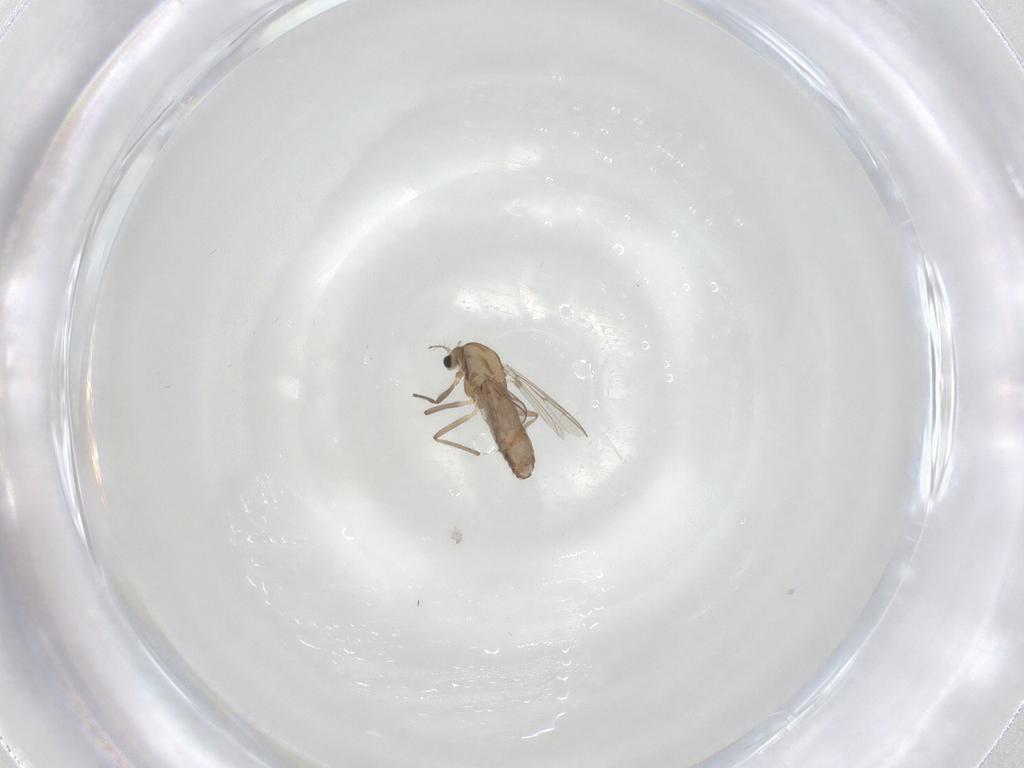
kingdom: Animalia
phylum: Arthropoda
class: Insecta
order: Diptera
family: Chironomidae
